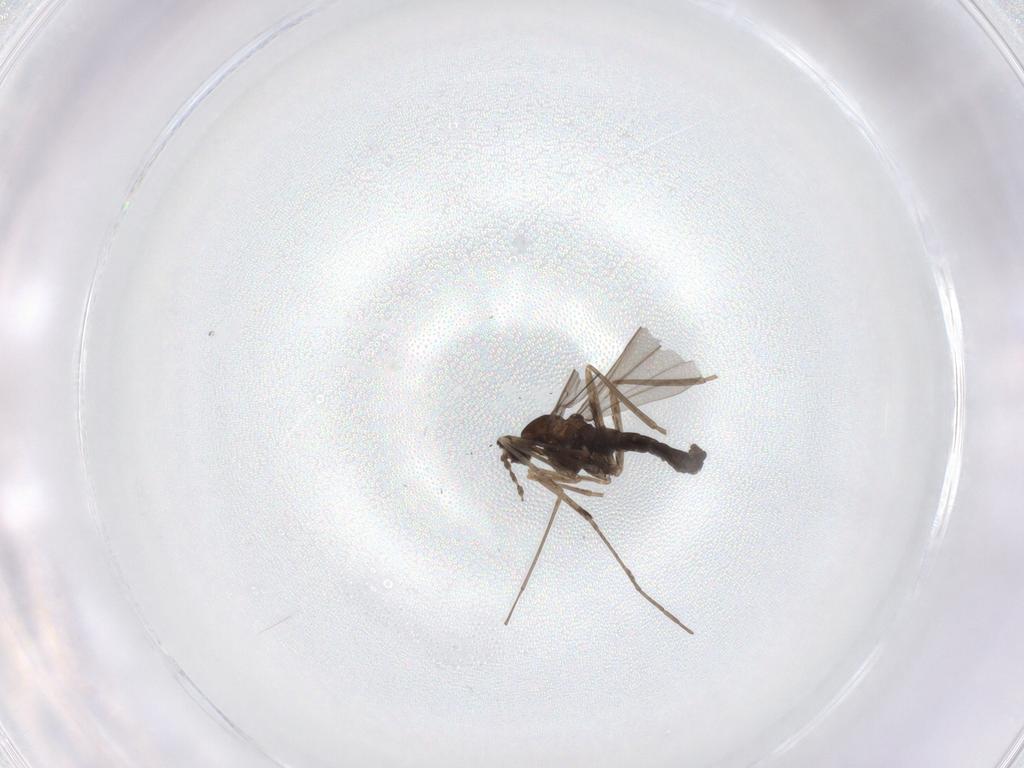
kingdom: Animalia
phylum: Arthropoda
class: Insecta
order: Diptera
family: Cecidomyiidae
